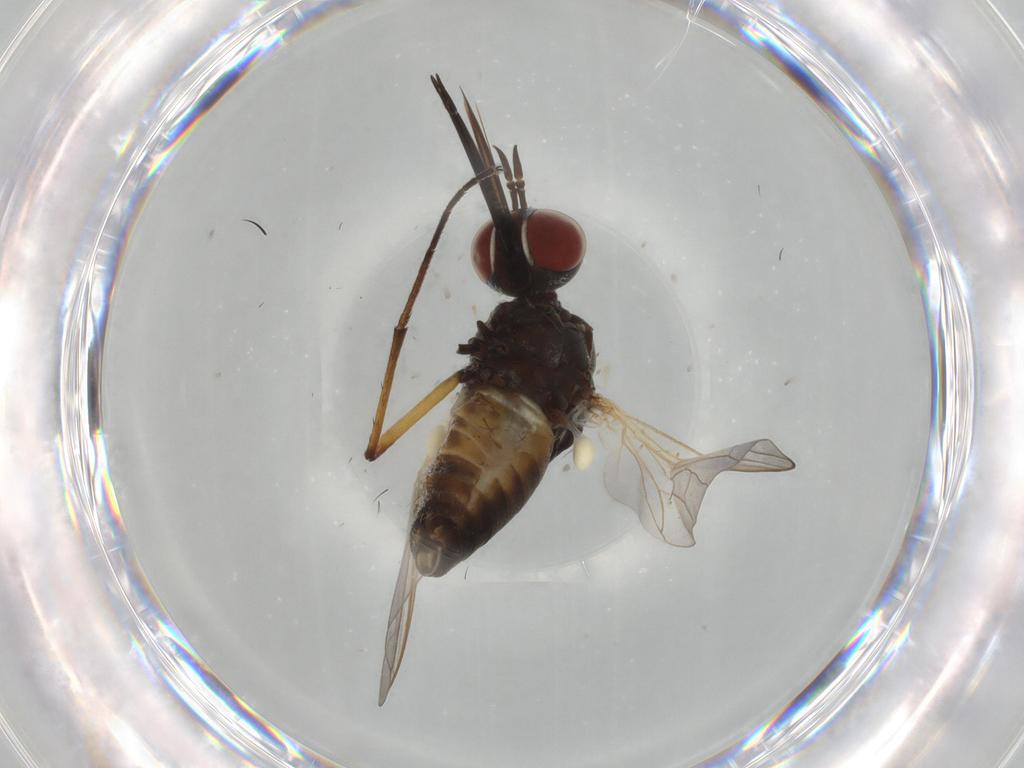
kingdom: Animalia
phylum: Arthropoda
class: Insecta
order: Diptera
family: Bombyliidae
